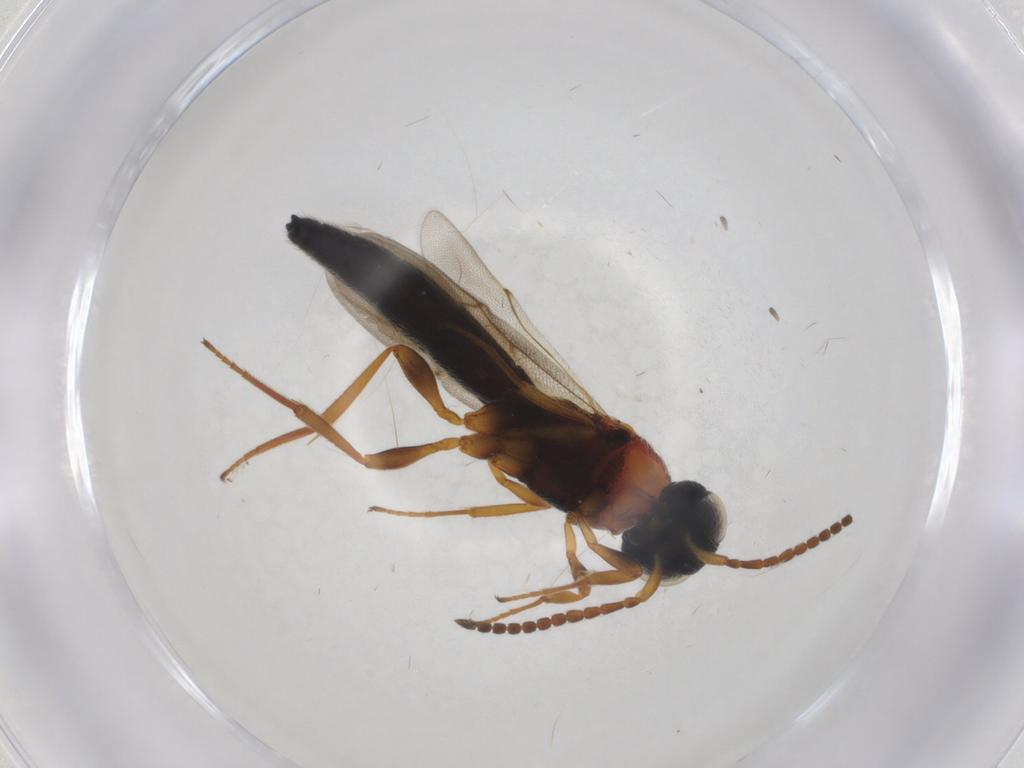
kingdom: Animalia
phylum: Arthropoda
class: Insecta
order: Hymenoptera
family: Scelionidae
